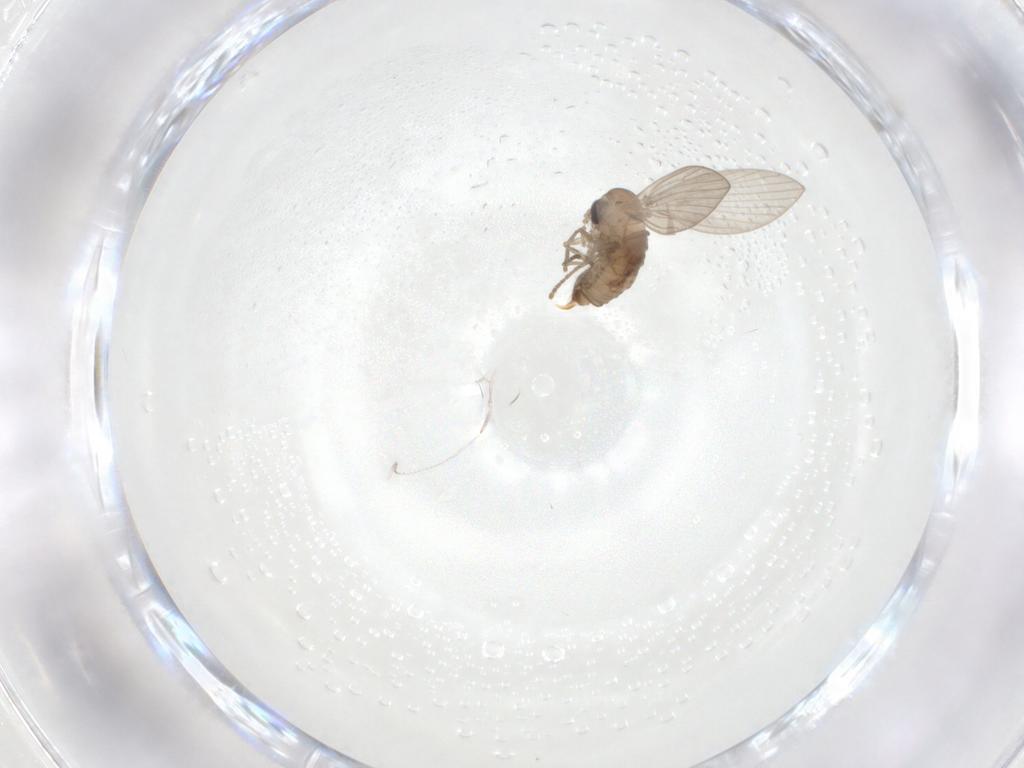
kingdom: Animalia
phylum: Arthropoda
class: Insecta
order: Diptera
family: Psychodidae
